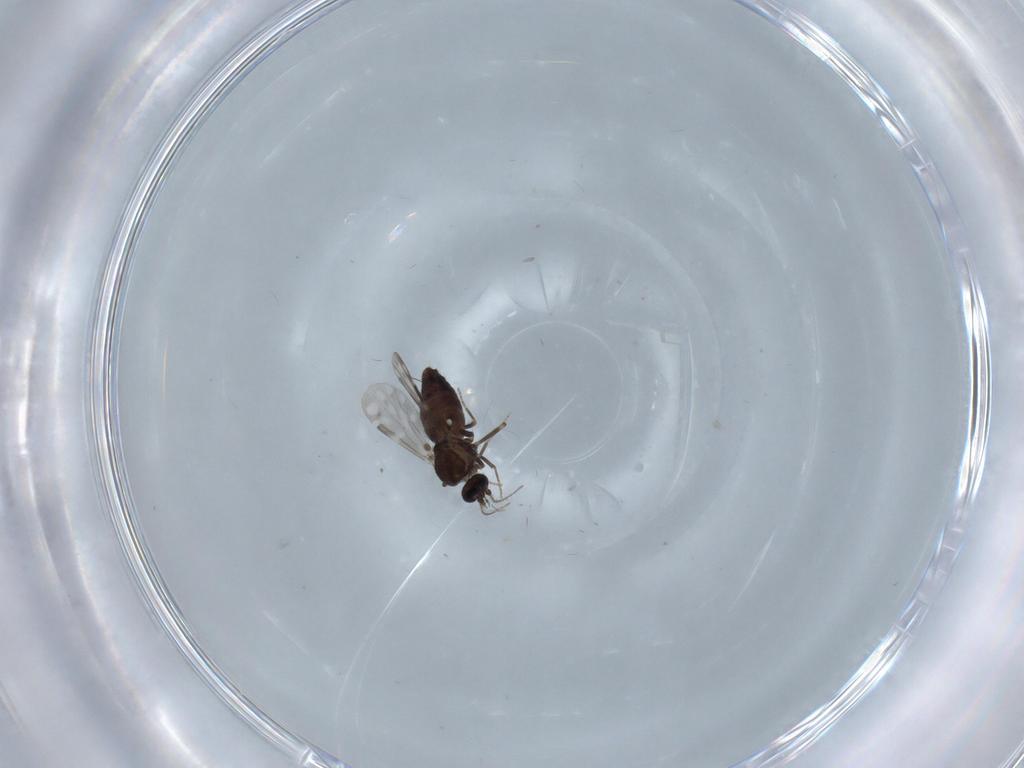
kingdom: Animalia
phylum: Arthropoda
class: Insecta
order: Diptera
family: Ceratopogonidae
